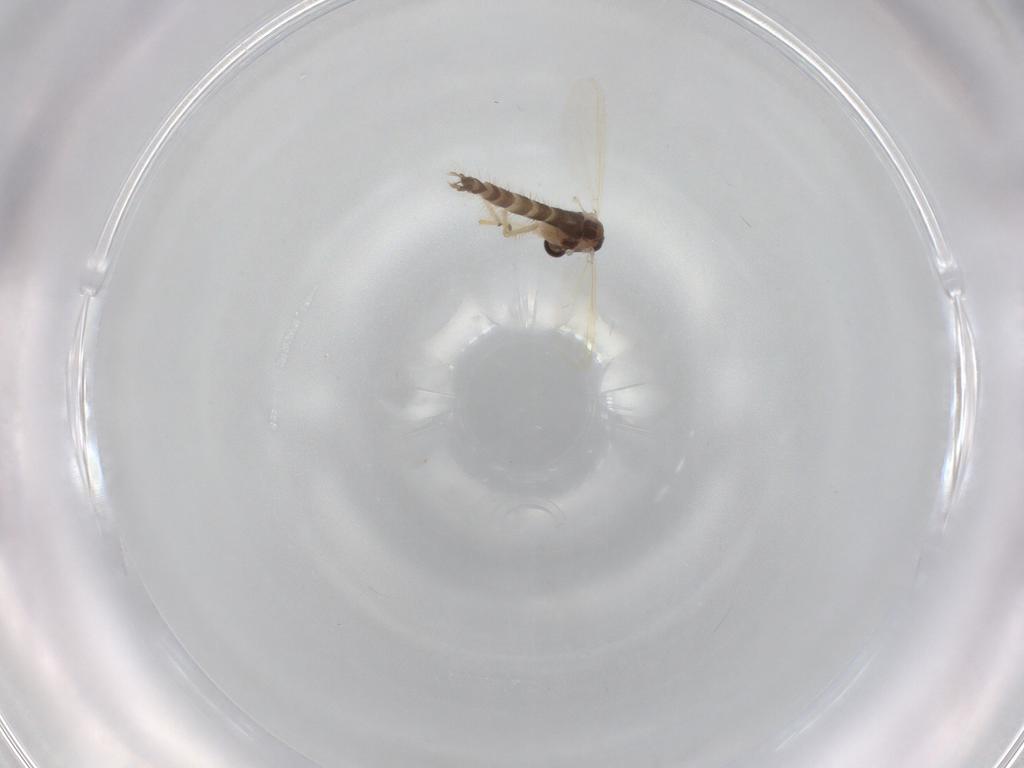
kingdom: Animalia
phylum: Arthropoda
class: Insecta
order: Diptera
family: Chironomidae
